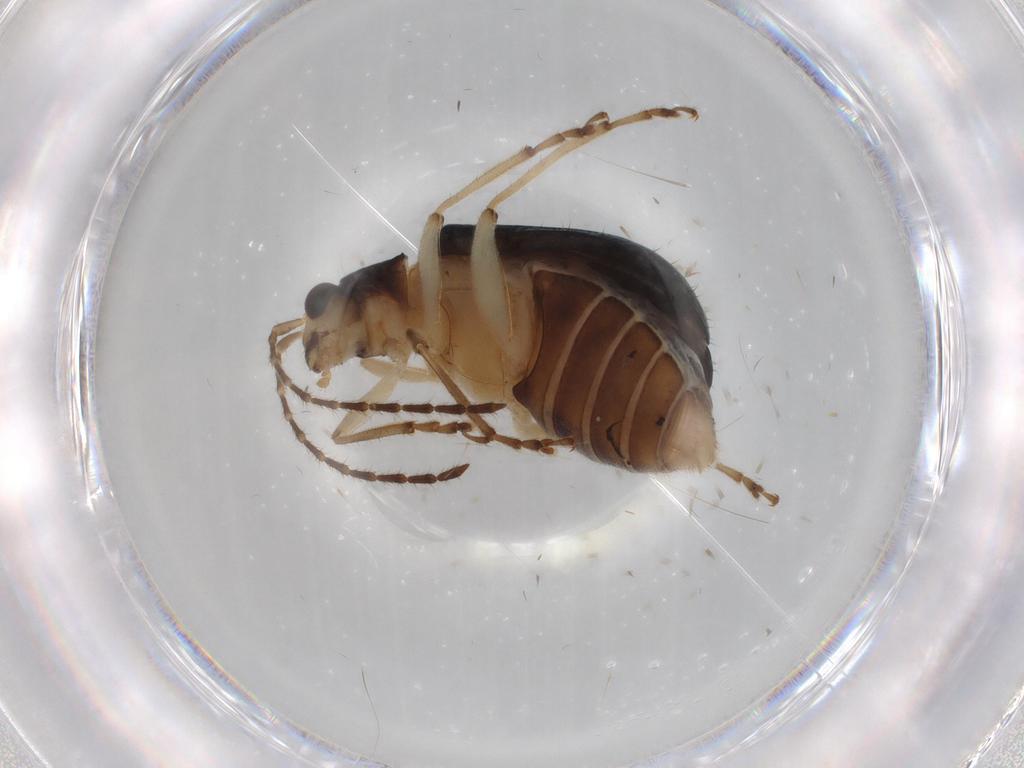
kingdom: Animalia
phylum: Arthropoda
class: Insecta
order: Coleoptera
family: Chrysomelidae
